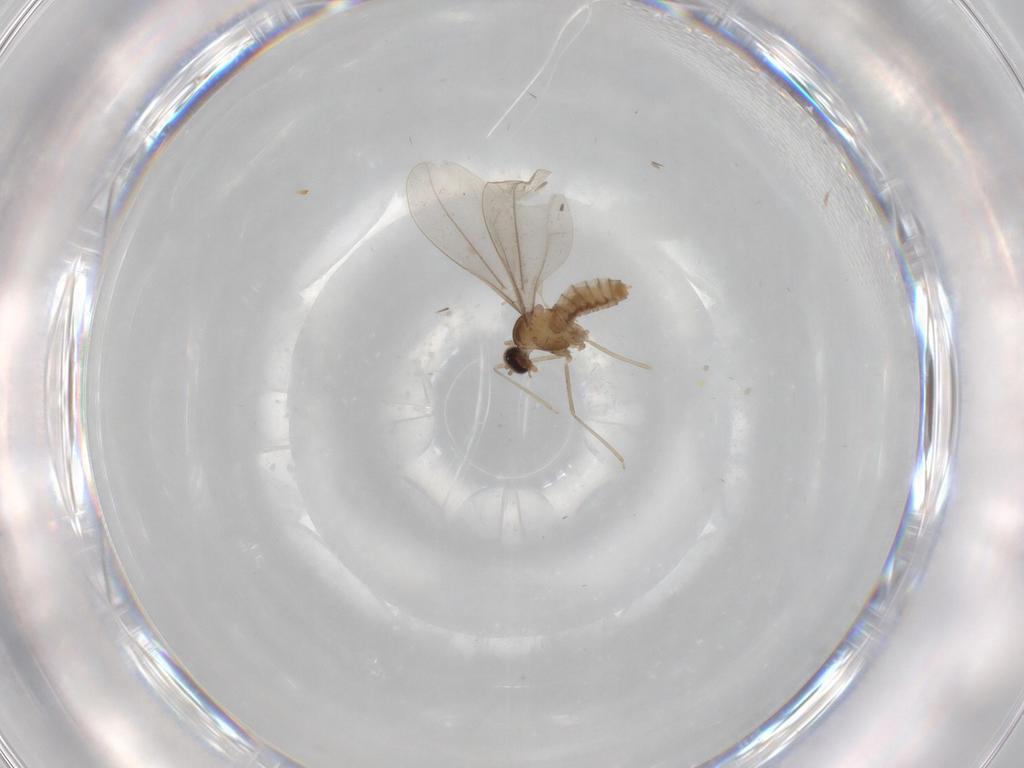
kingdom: Animalia
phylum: Arthropoda
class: Insecta
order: Diptera
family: Cecidomyiidae
